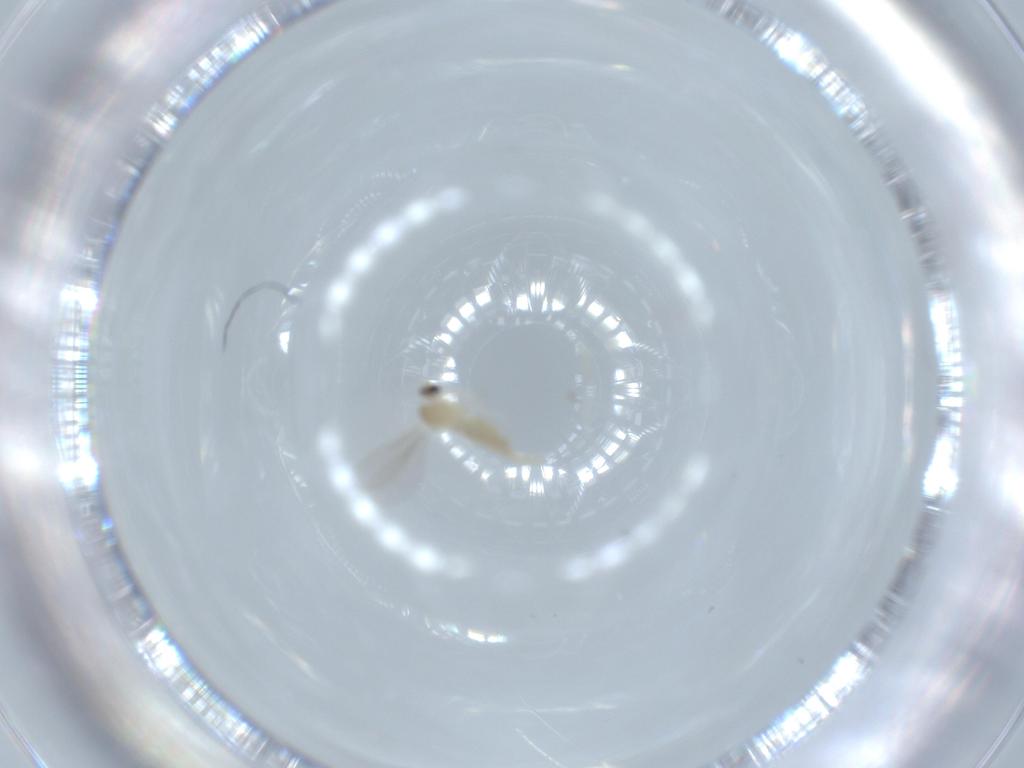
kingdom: Animalia
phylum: Arthropoda
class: Insecta
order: Diptera
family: Cecidomyiidae
